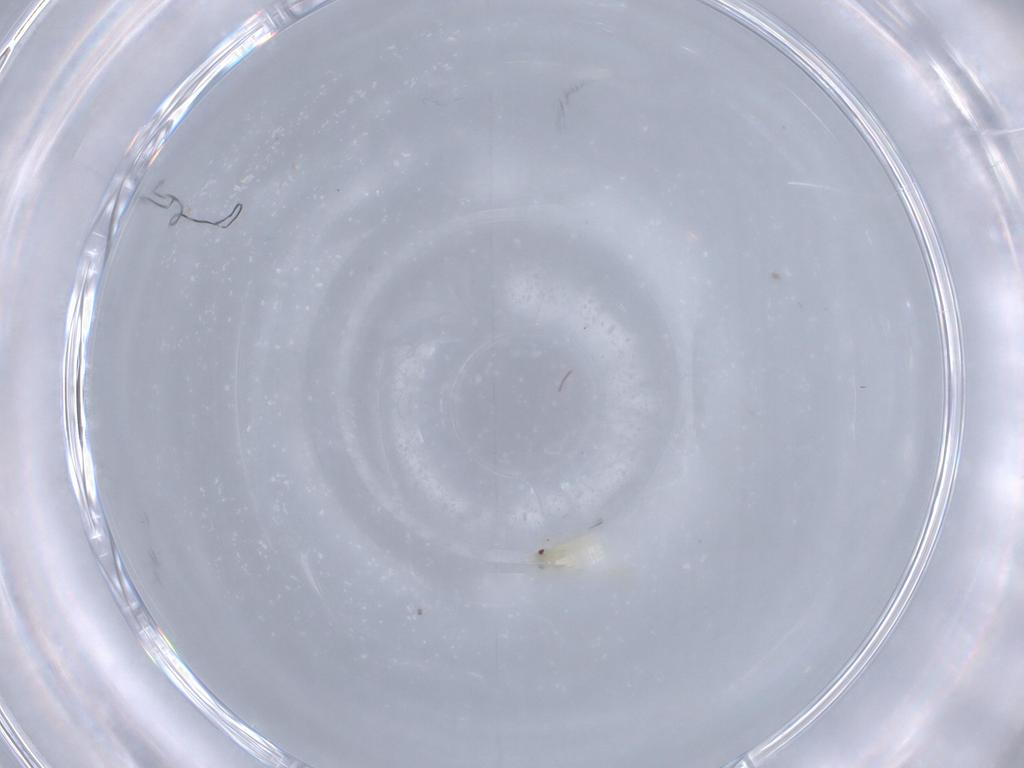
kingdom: Animalia
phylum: Arthropoda
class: Insecta
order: Hemiptera
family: Aleyrodidae
